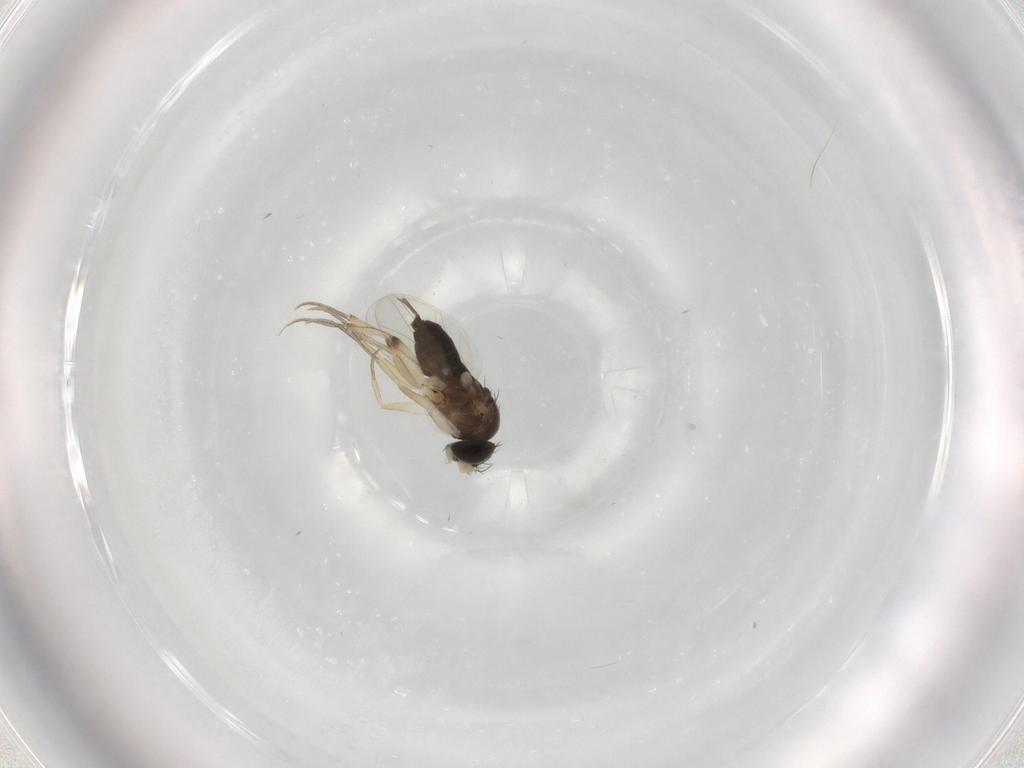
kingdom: Animalia
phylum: Arthropoda
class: Insecta
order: Diptera
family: Phoridae
